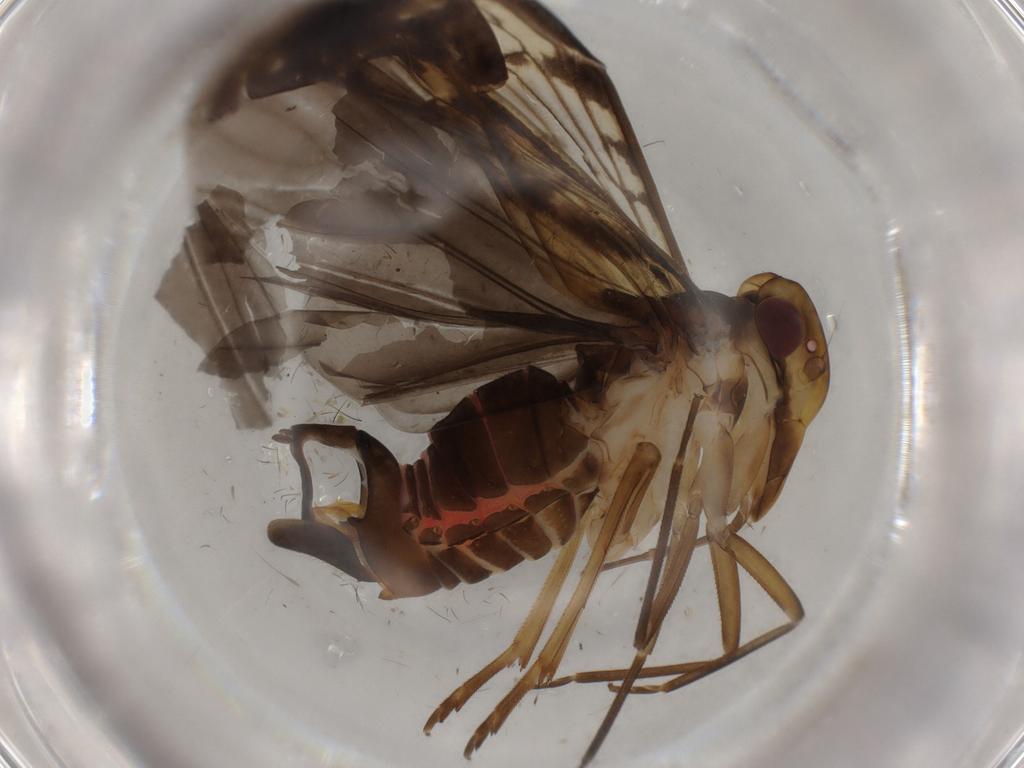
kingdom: Animalia
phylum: Arthropoda
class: Insecta
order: Hemiptera
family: Cixiidae
